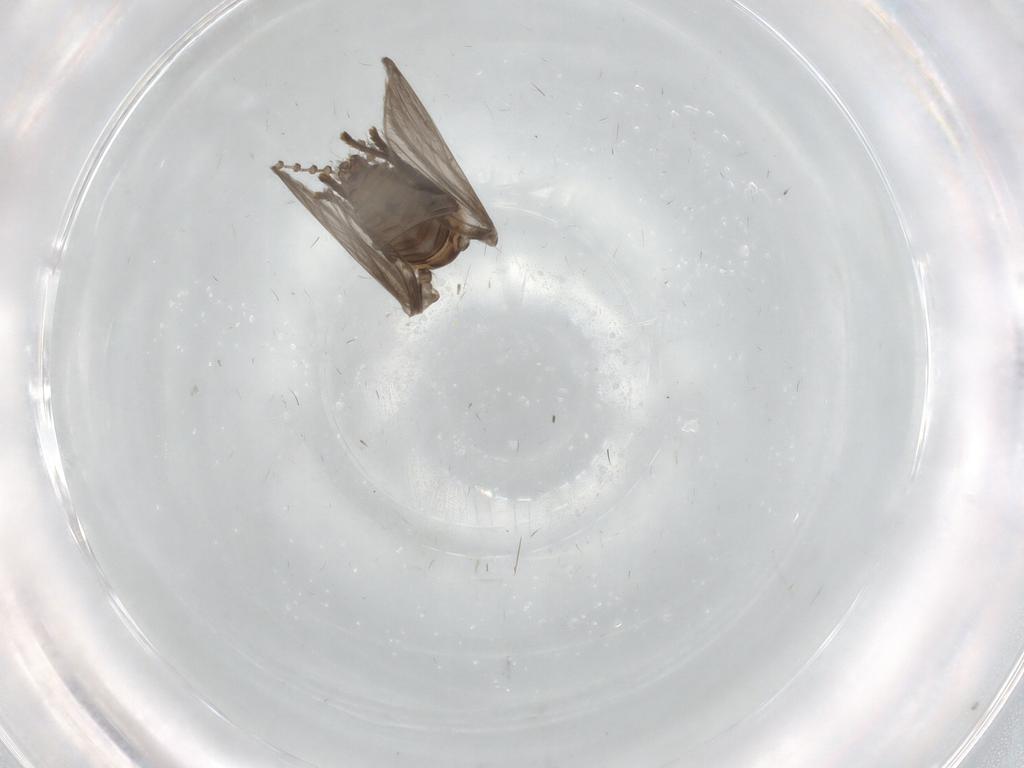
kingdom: Animalia
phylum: Arthropoda
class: Insecta
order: Diptera
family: Psychodidae
